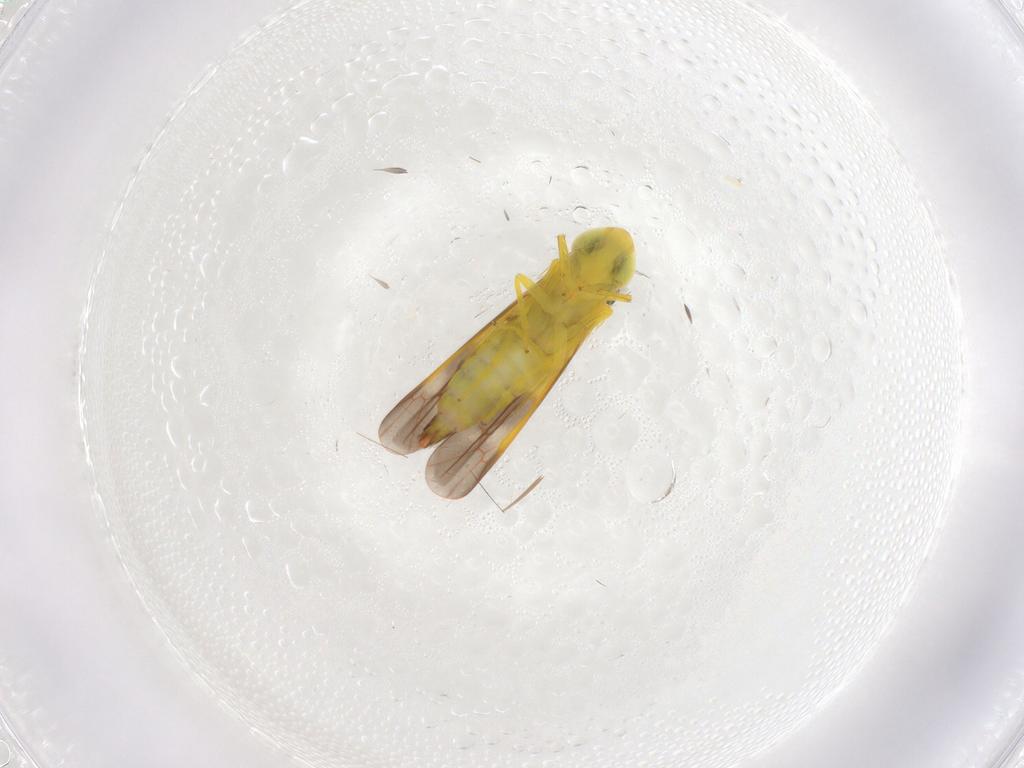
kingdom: Animalia
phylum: Arthropoda
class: Insecta
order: Hemiptera
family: Cicadellidae
